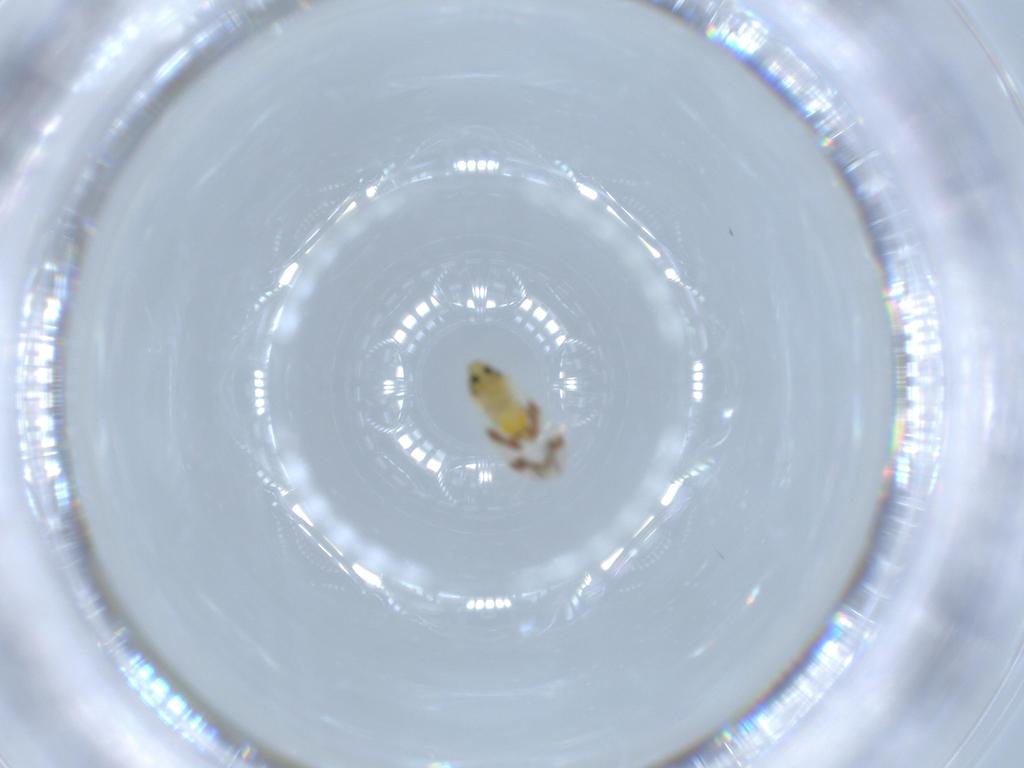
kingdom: Animalia
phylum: Arthropoda
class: Insecta
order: Hemiptera
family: Aleyrodidae
